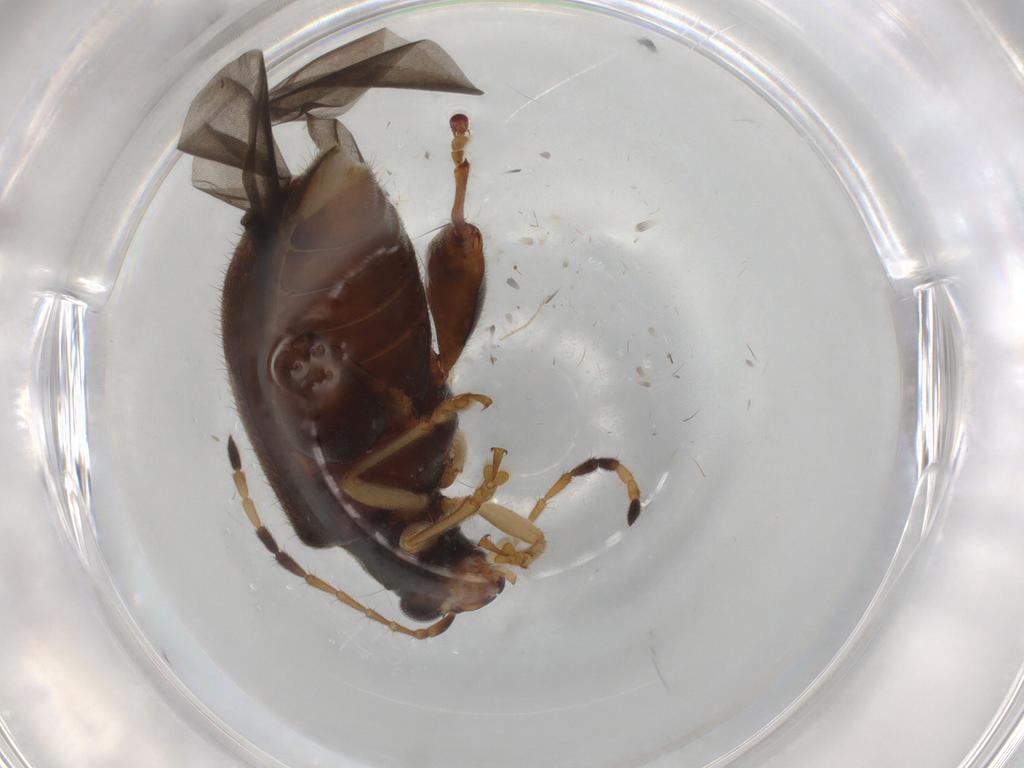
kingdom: Animalia
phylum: Arthropoda
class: Insecta
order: Coleoptera
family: Chrysomelidae
